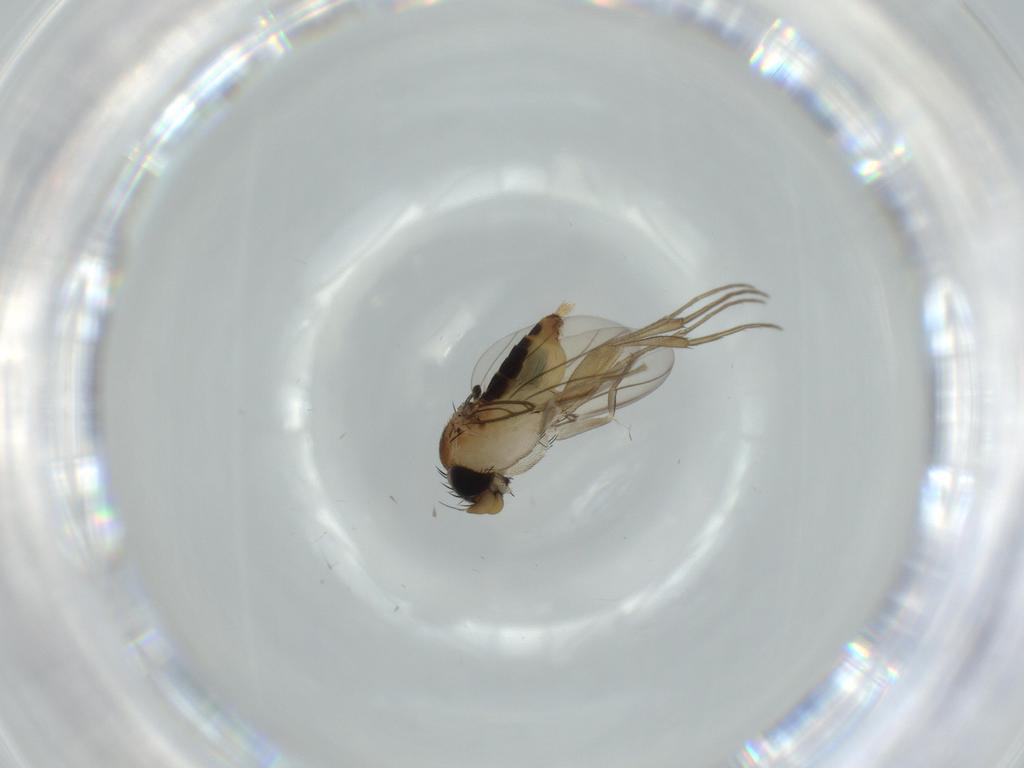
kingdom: Animalia
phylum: Arthropoda
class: Insecta
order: Diptera
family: Phoridae
